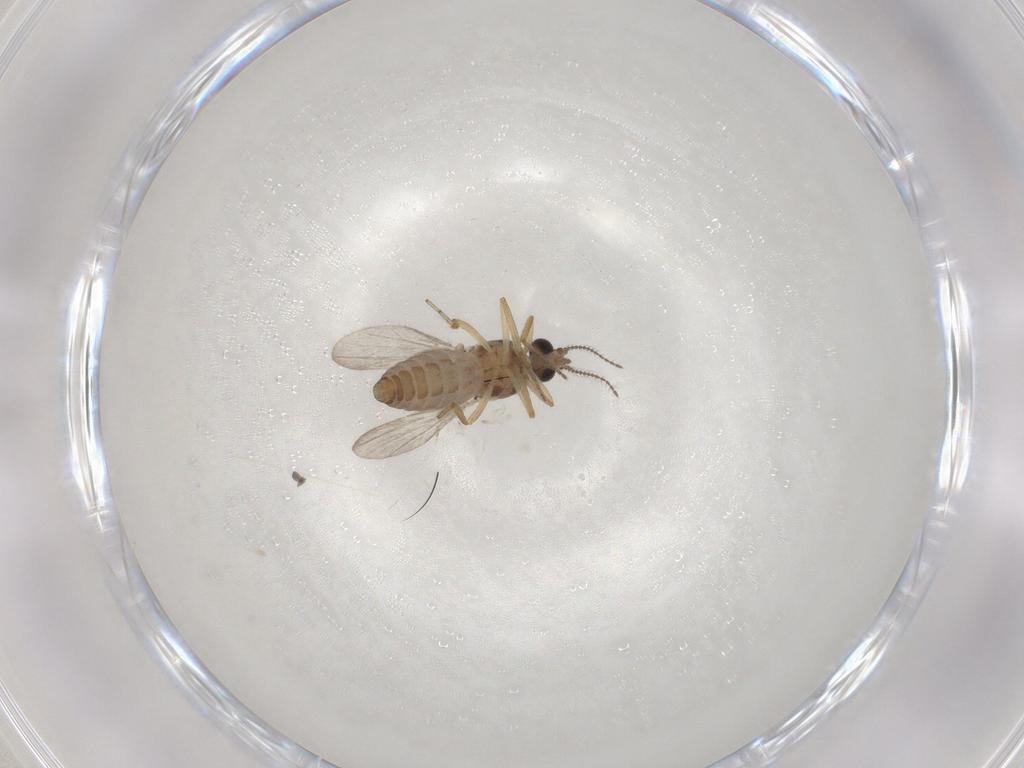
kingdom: Animalia
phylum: Arthropoda
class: Insecta
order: Diptera
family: Ceratopogonidae
